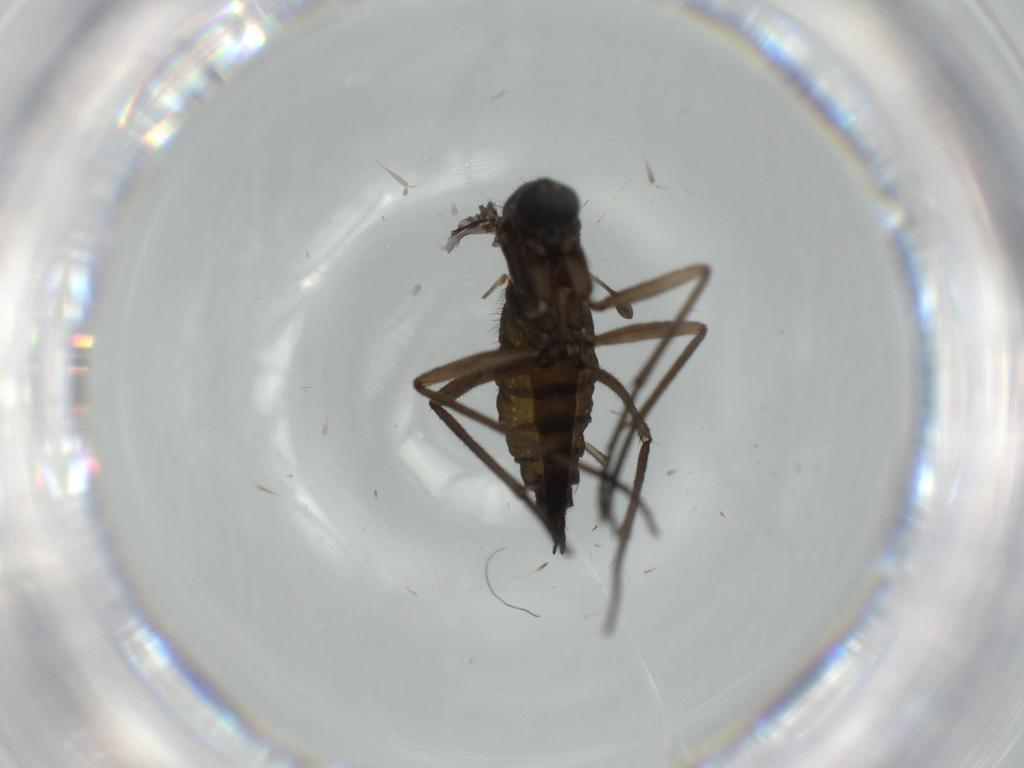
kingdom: Animalia
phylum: Arthropoda
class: Insecta
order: Diptera
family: Sciaridae
